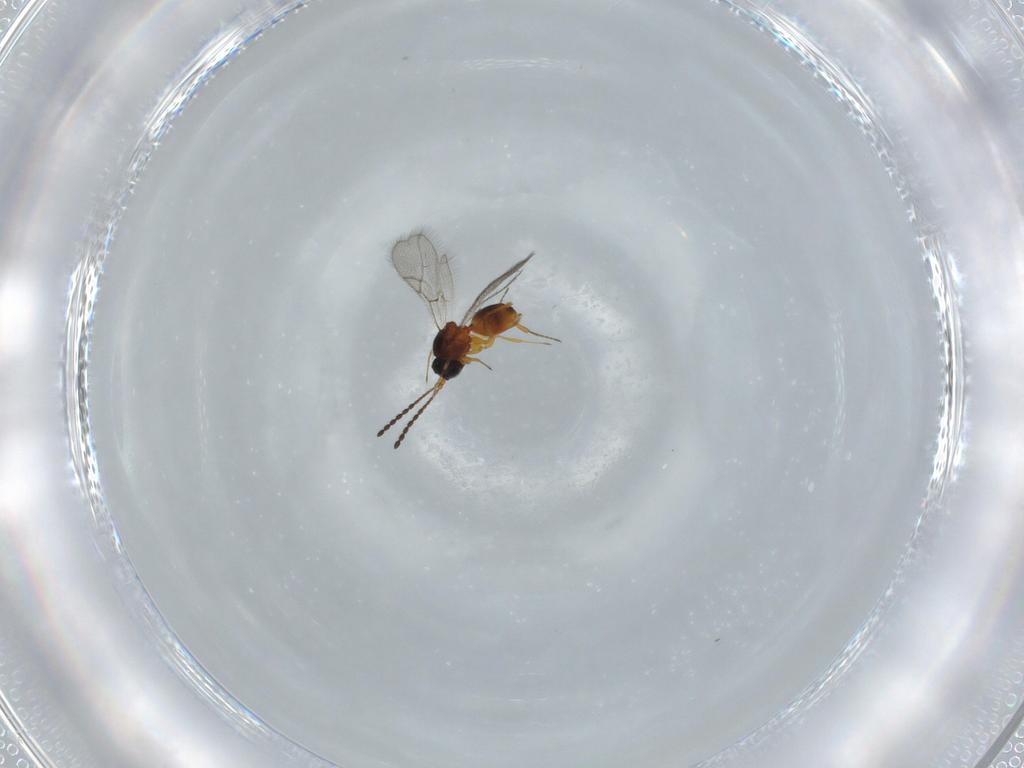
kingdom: Animalia
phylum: Arthropoda
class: Insecta
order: Hymenoptera
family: Figitidae
